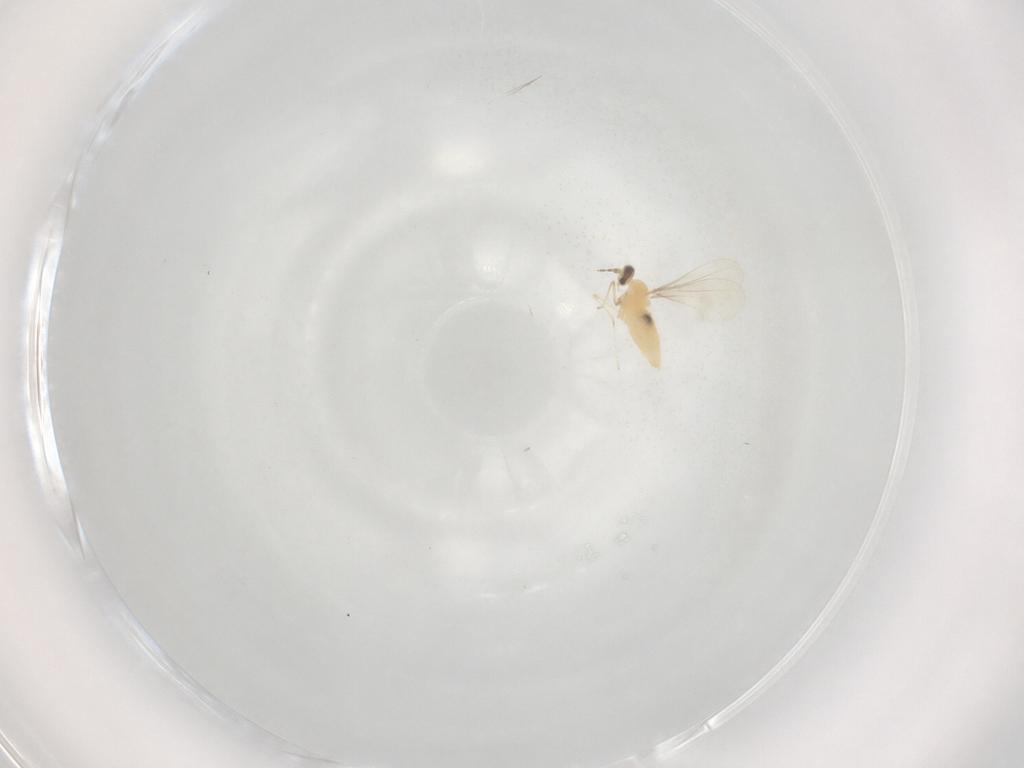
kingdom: Animalia
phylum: Arthropoda
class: Insecta
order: Diptera
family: Cecidomyiidae
